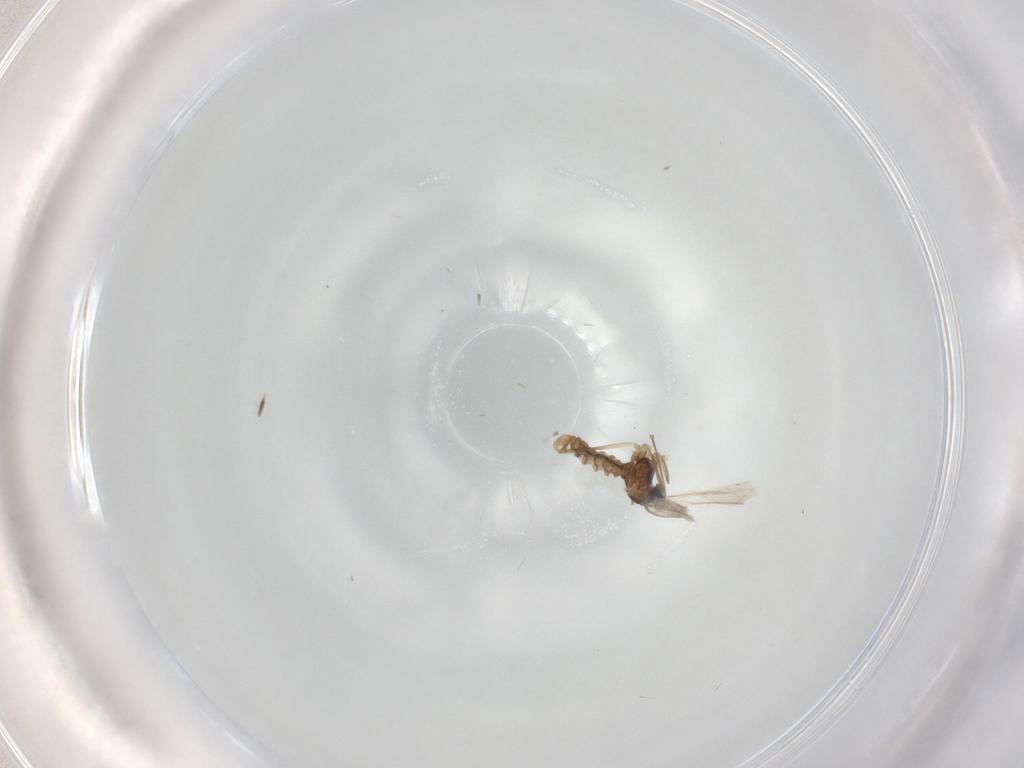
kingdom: Animalia
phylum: Arthropoda
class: Insecta
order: Diptera
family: Cecidomyiidae
